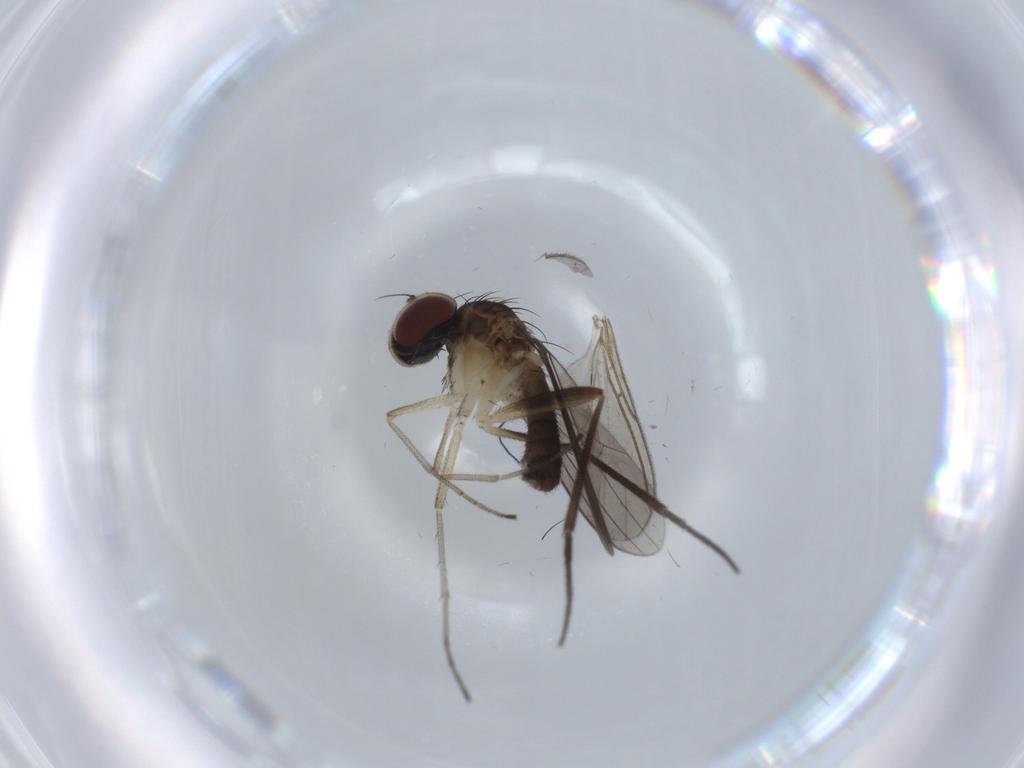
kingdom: Animalia
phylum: Arthropoda
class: Insecta
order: Diptera
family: Dolichopodidae
